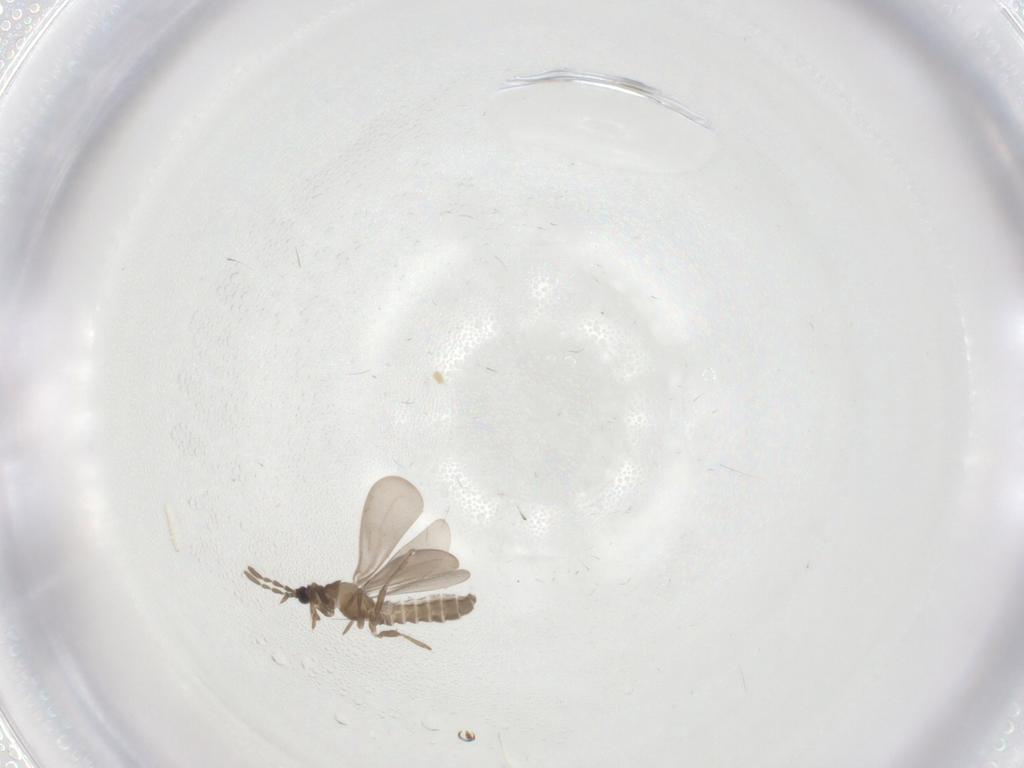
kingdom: Animalia
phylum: Arthropoda
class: Insecta
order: Hemiptera
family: Enicocephalidae
